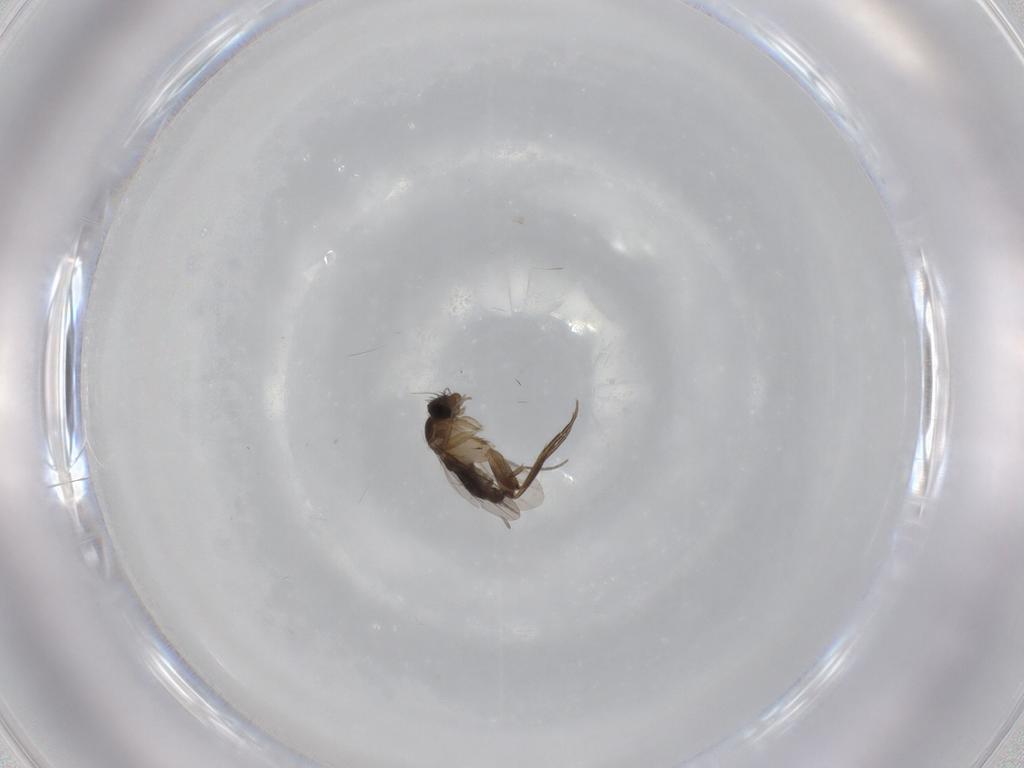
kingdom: Animalia
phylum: Arthropoda
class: Insecta
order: Diptera
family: Phoridae
